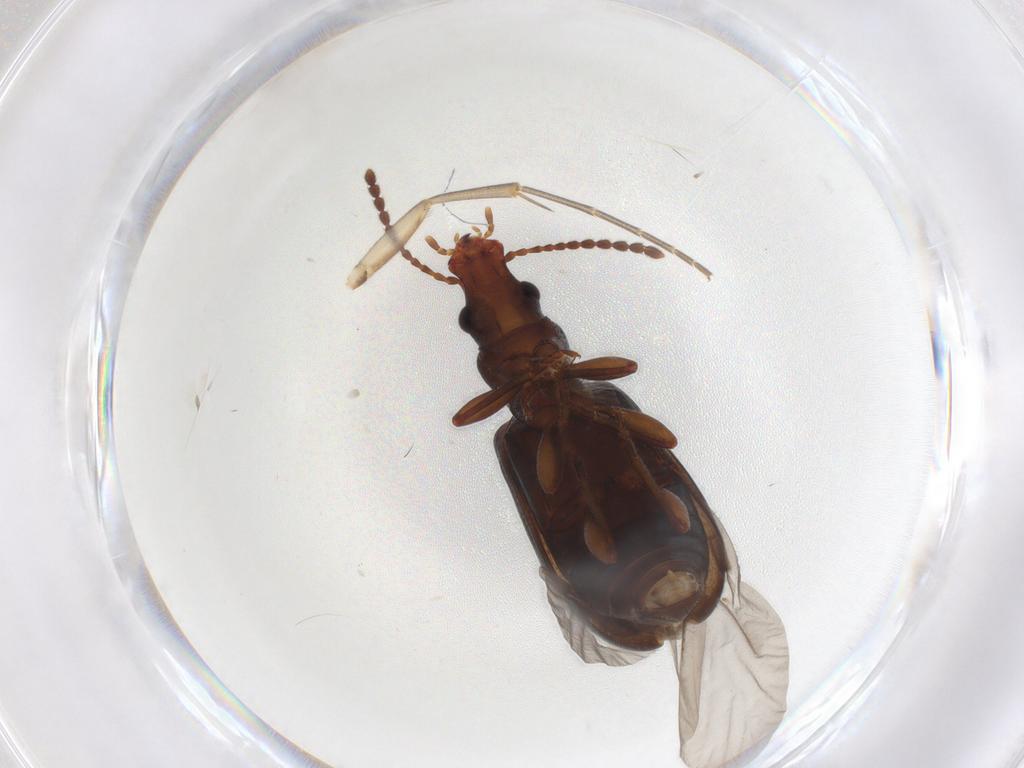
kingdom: Animalia
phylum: Arthropoda
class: Insecta
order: Coleoptera
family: Salpingidae
